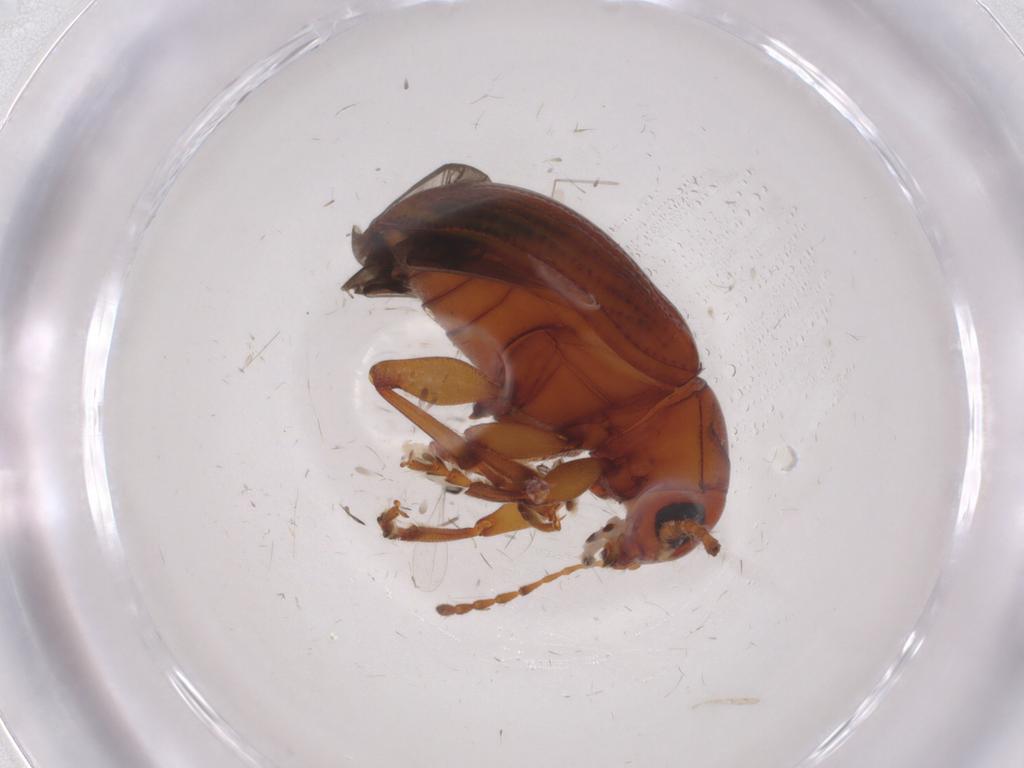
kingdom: Animalia
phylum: Arthropoda
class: Insecta
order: Coleoptera
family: Chrysomelidae
